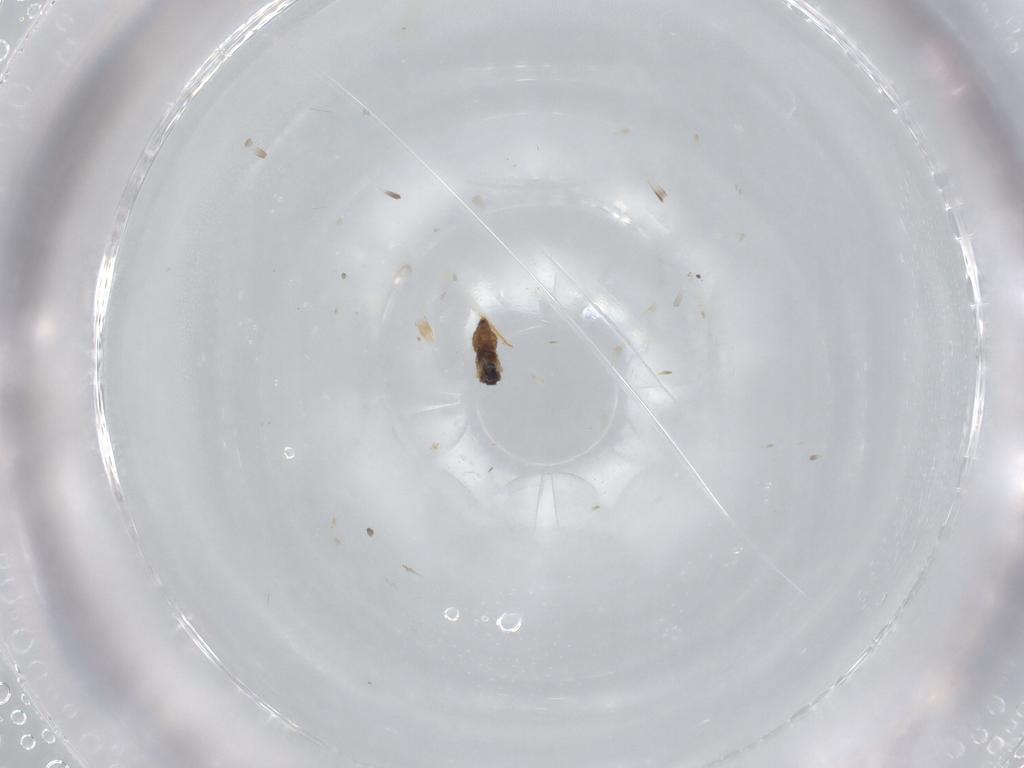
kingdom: Animalia
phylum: Arthropoda
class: Insecta
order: Diptera
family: Cecidomyiidae
